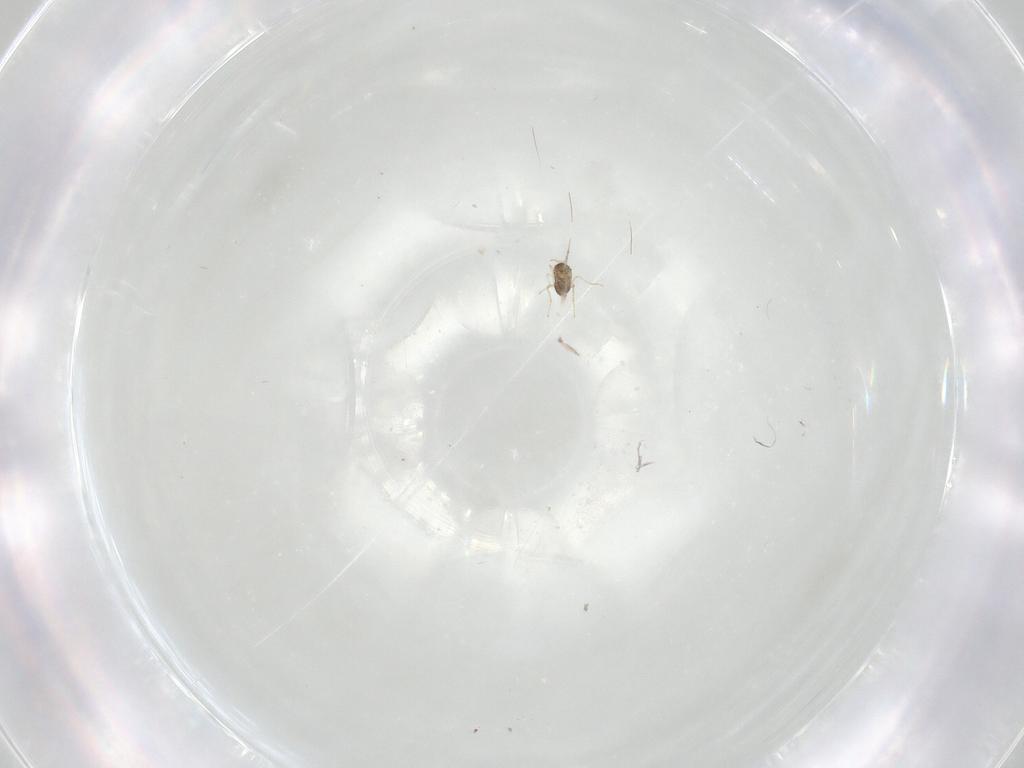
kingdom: Animalia
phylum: Arthropoda
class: Collembola
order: Entomobryomorpha
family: Entomobryidae
